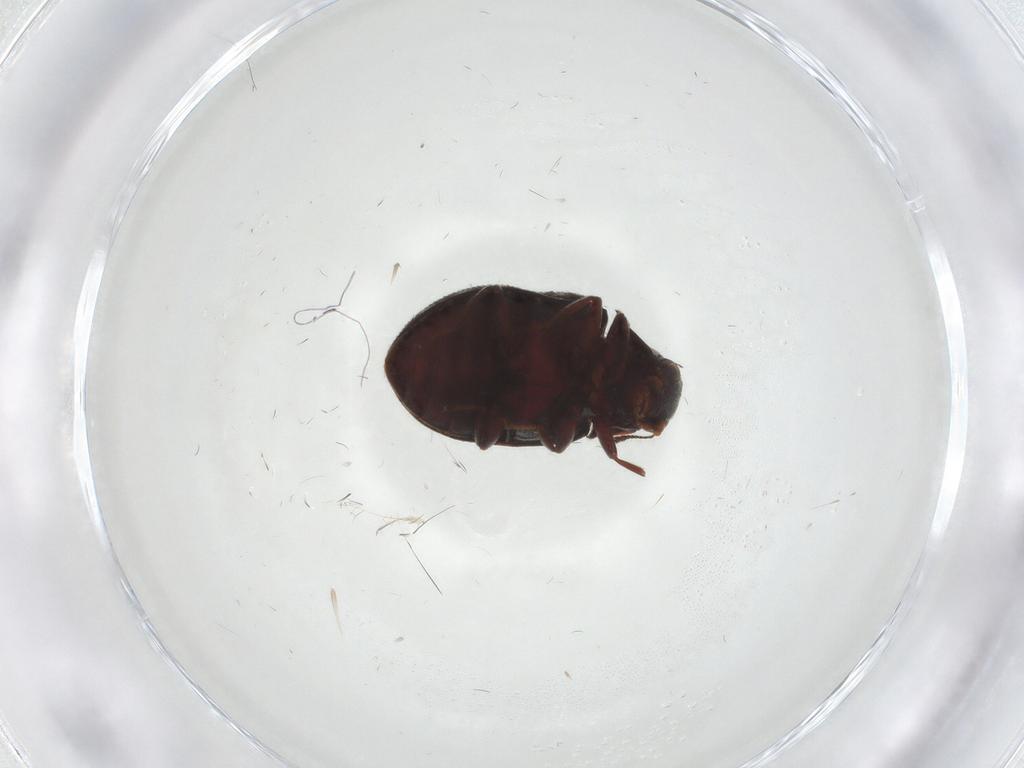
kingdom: Animalia
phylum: Arthropoda
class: Insecta
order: Coleoptera
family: Limnichidae
